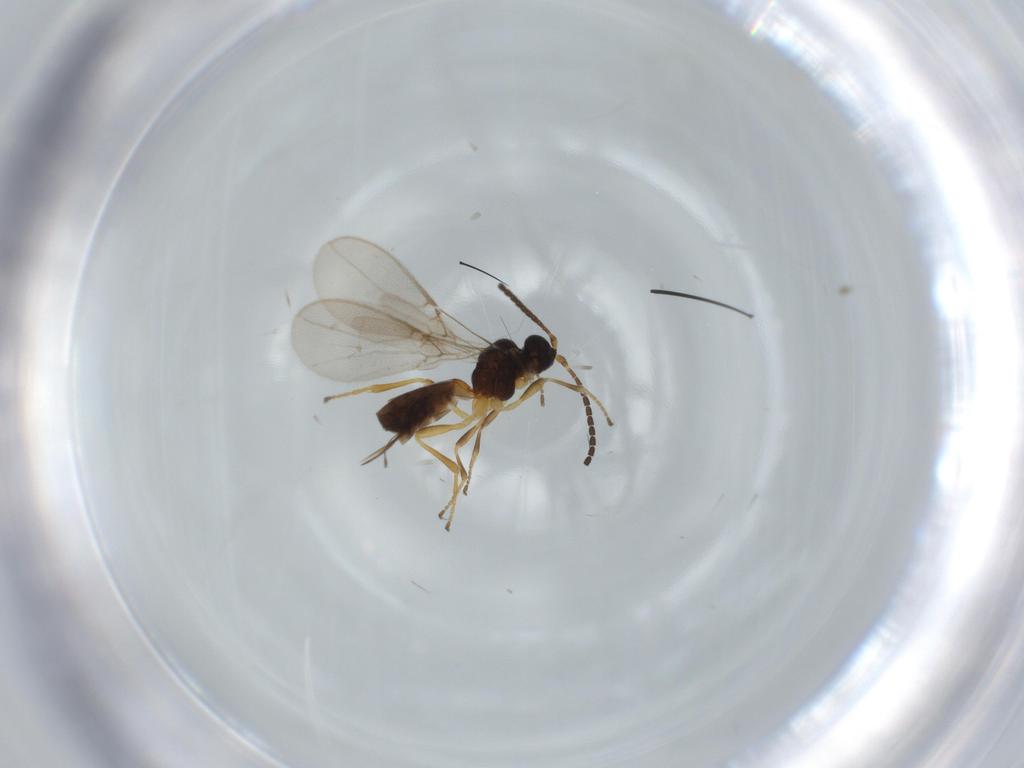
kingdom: Animalia
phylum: Arthropoda
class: Insecta
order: Hymenoptera
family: Braconidae
